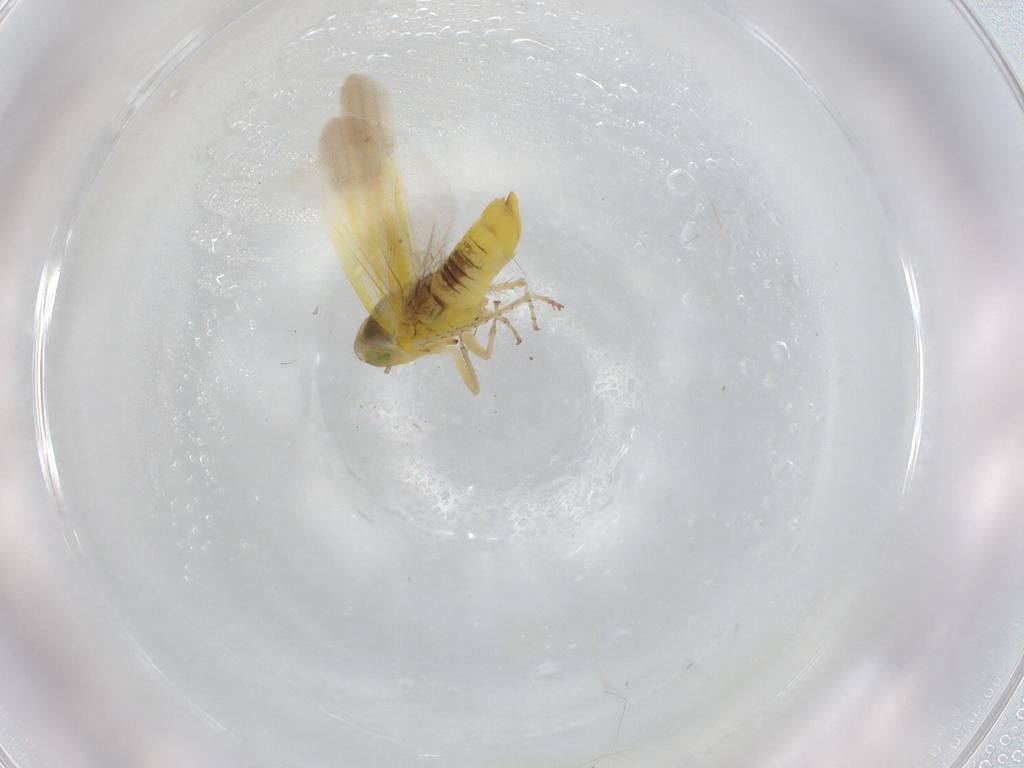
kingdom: Animalia
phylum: Arthropoda
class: Insecta
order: Hemiptera
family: Cicadellidae
